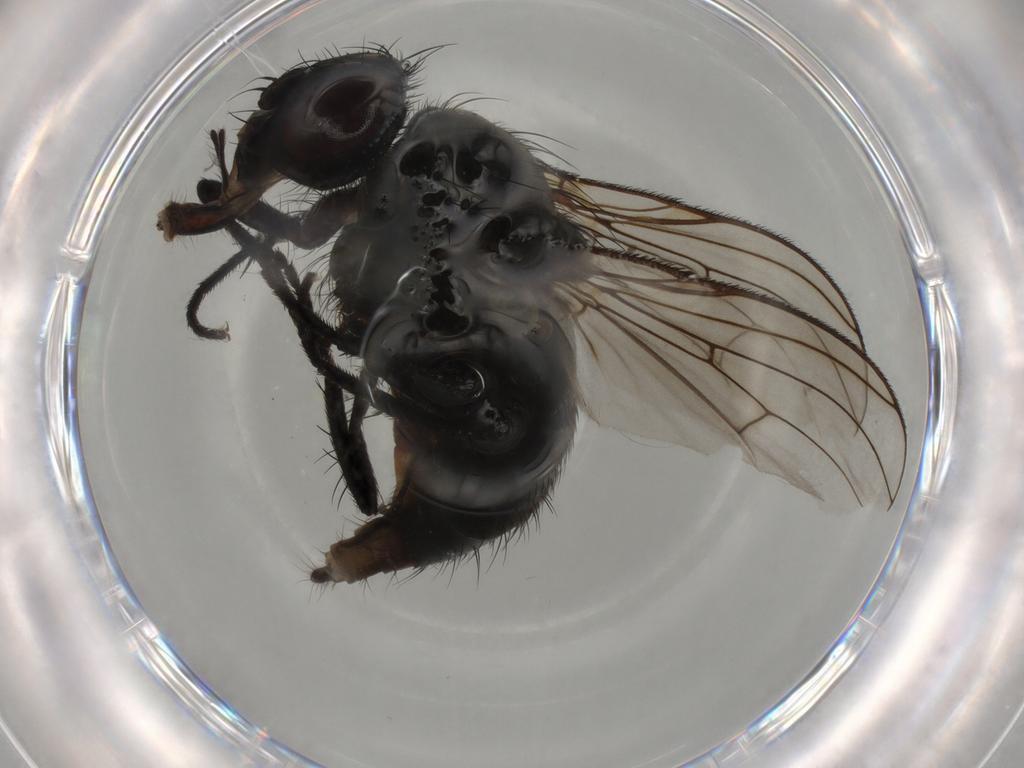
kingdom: Animalia
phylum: Arthropoda
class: Insecta
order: Diptera
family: Muscidae
